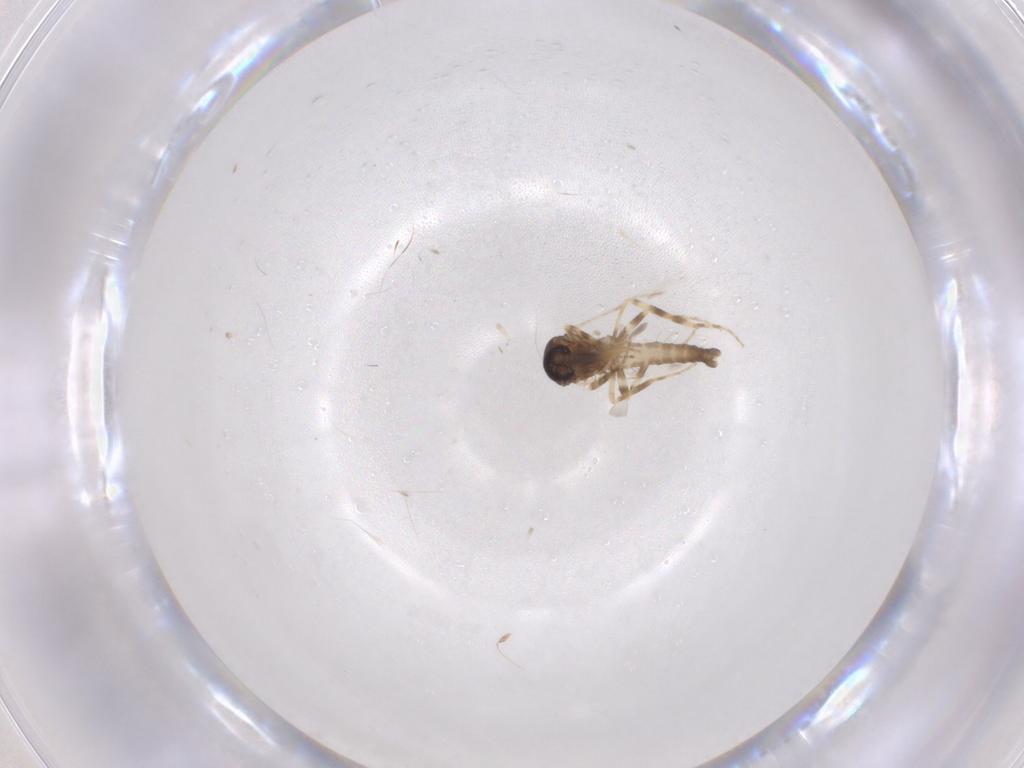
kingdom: Animalia
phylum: Arthropoda
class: Insecta
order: Diptera
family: Ceratopogonidae
